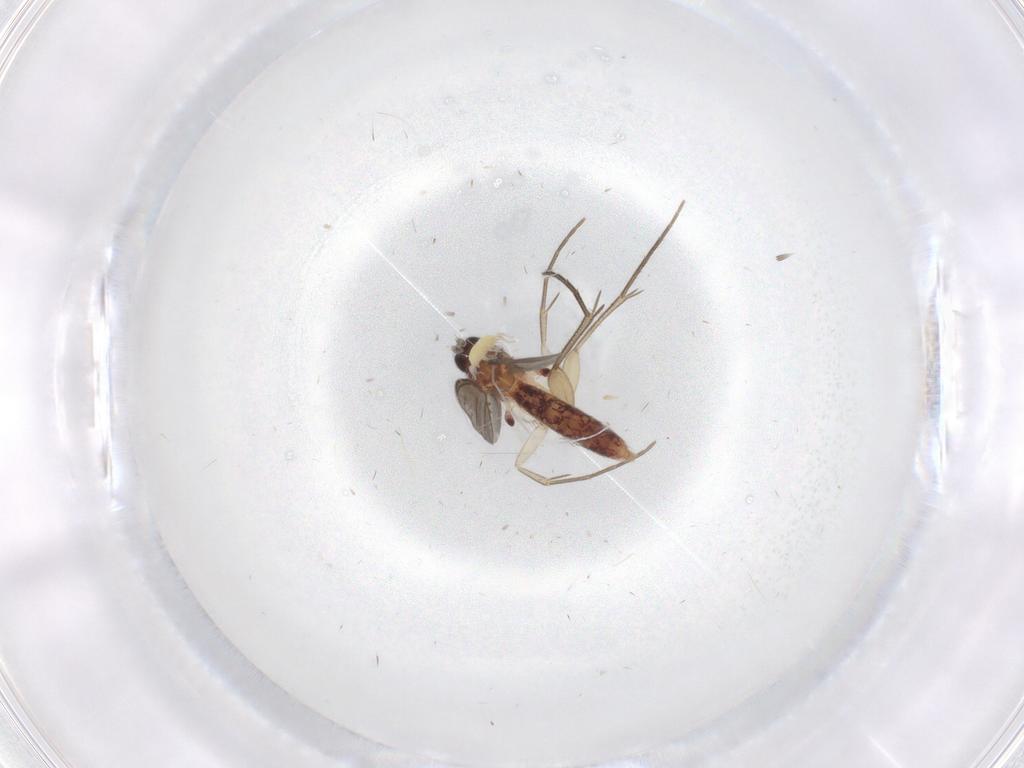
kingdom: Animalia
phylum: Arthropoda
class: Insecta
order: Diptera
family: Mycetophilidae
